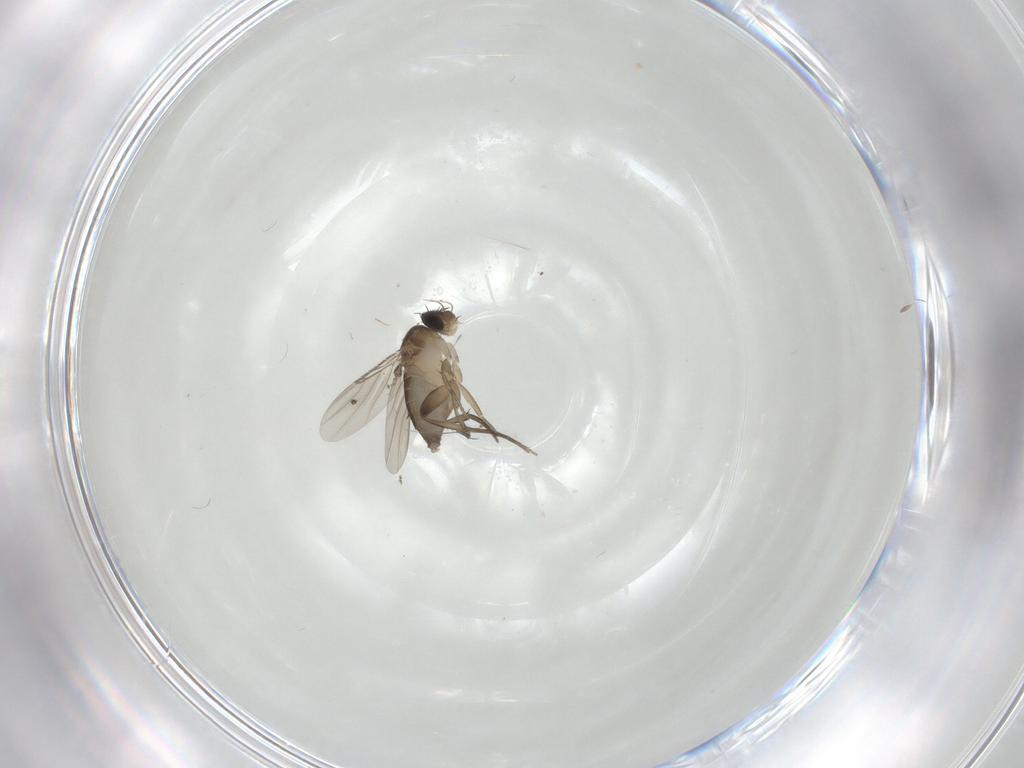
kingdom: Animalia
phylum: Arthropoda
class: Insecta
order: Diptera
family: Phoridae
